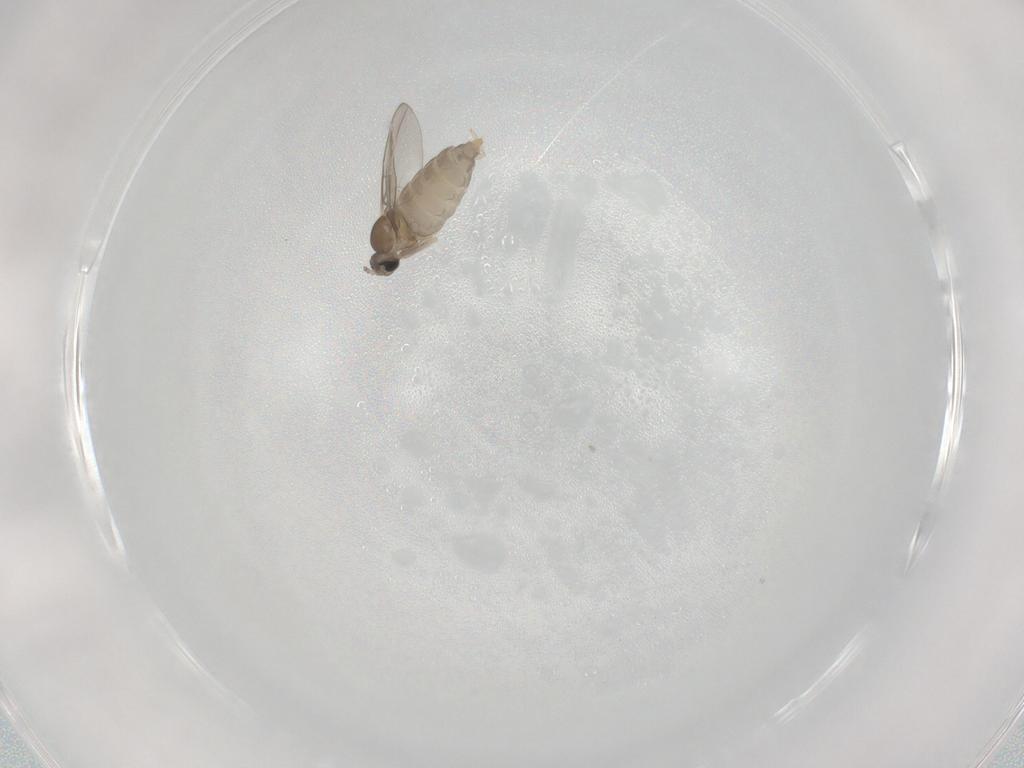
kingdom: Animalia
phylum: Arthropoda
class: Insecta
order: Diptera
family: Cecidomyiidae
